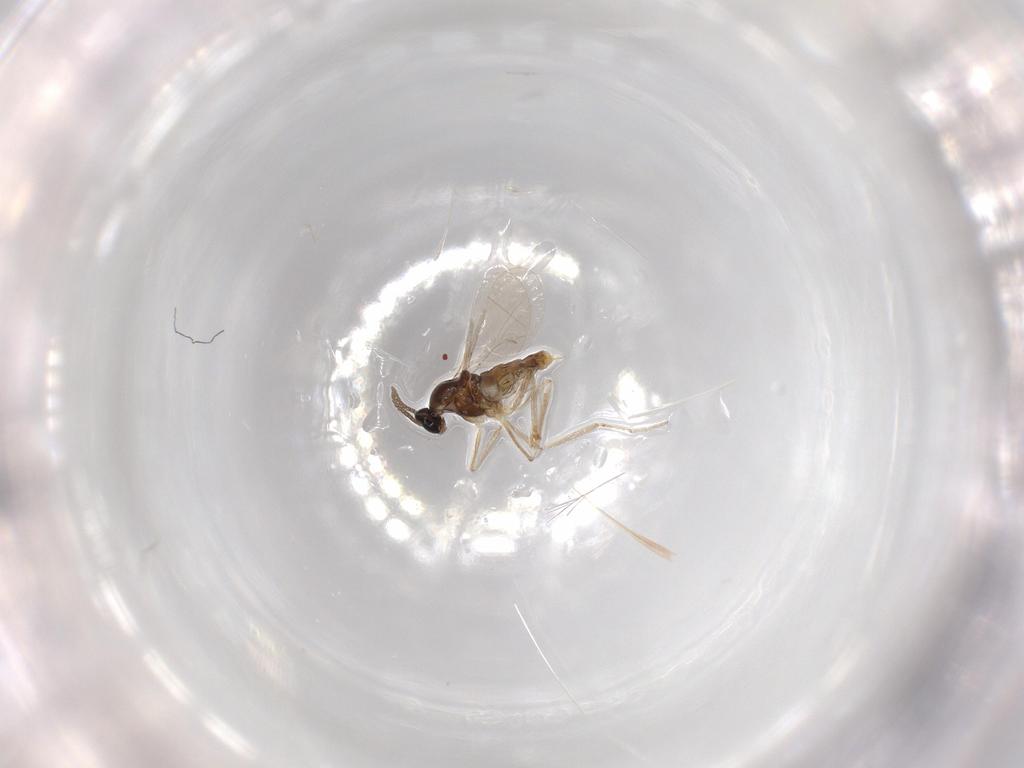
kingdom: Animalia
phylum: Arthropoda
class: Insecta
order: Diptera
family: Cecidomyiidae
